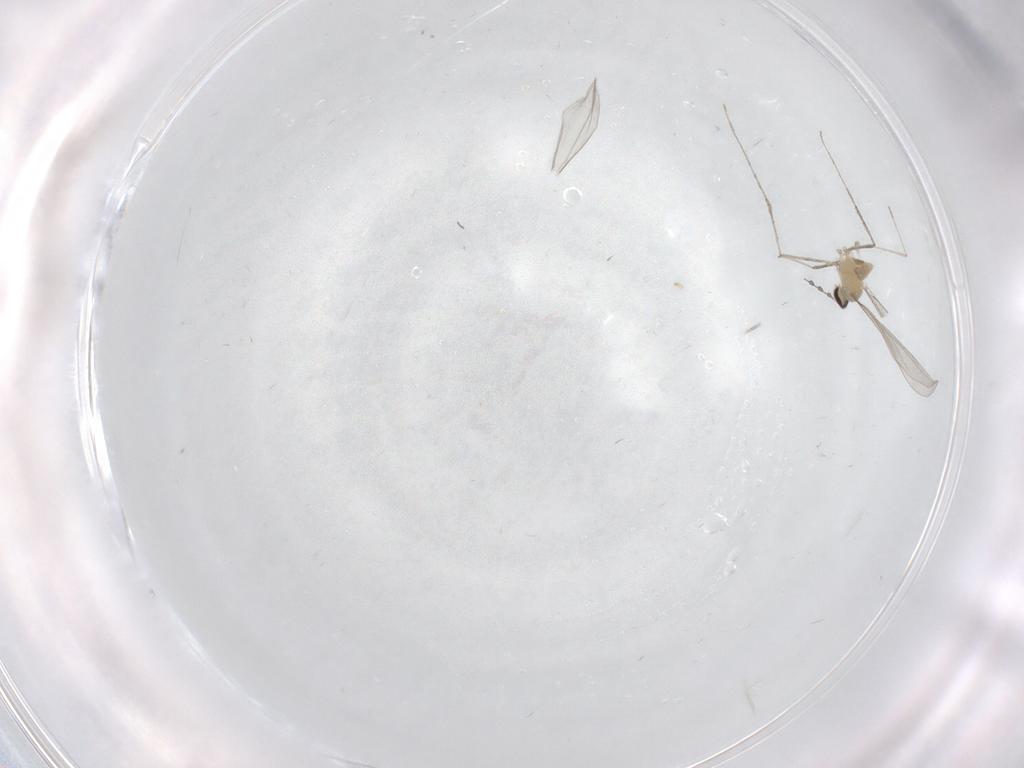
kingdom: Animalia
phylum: Arthropoda
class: Insecta
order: Diptera
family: Cecidomyiidae
